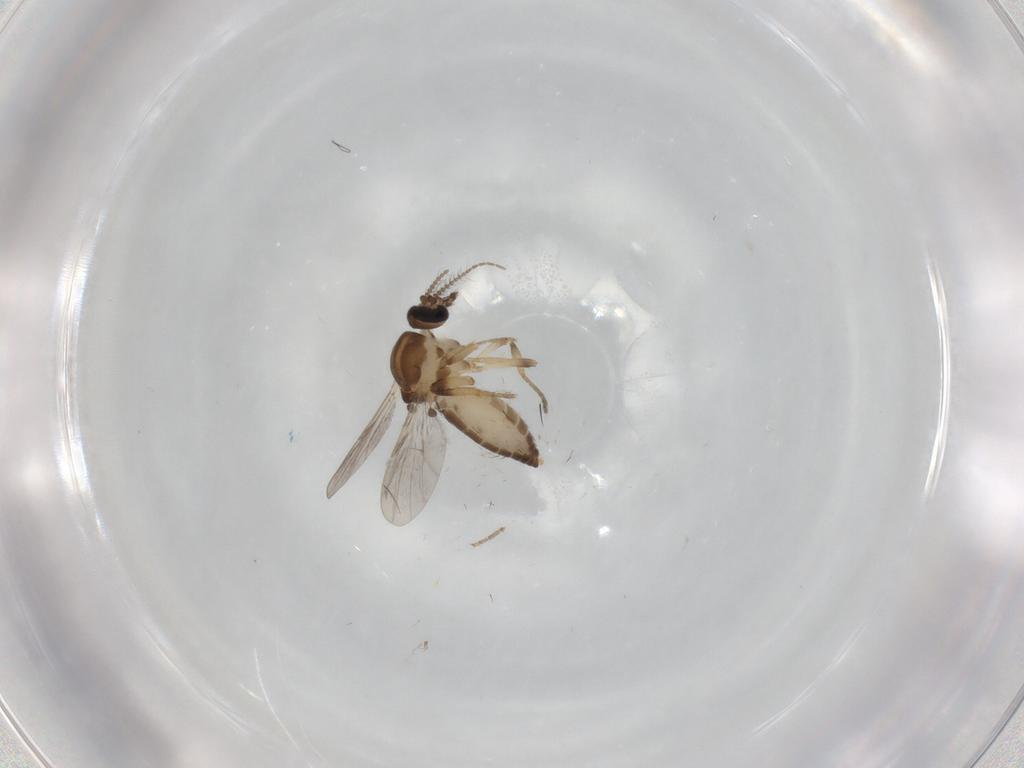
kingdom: Animalia
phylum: Arthropoda
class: Insecta
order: Diptera
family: Ceratopogonidae
